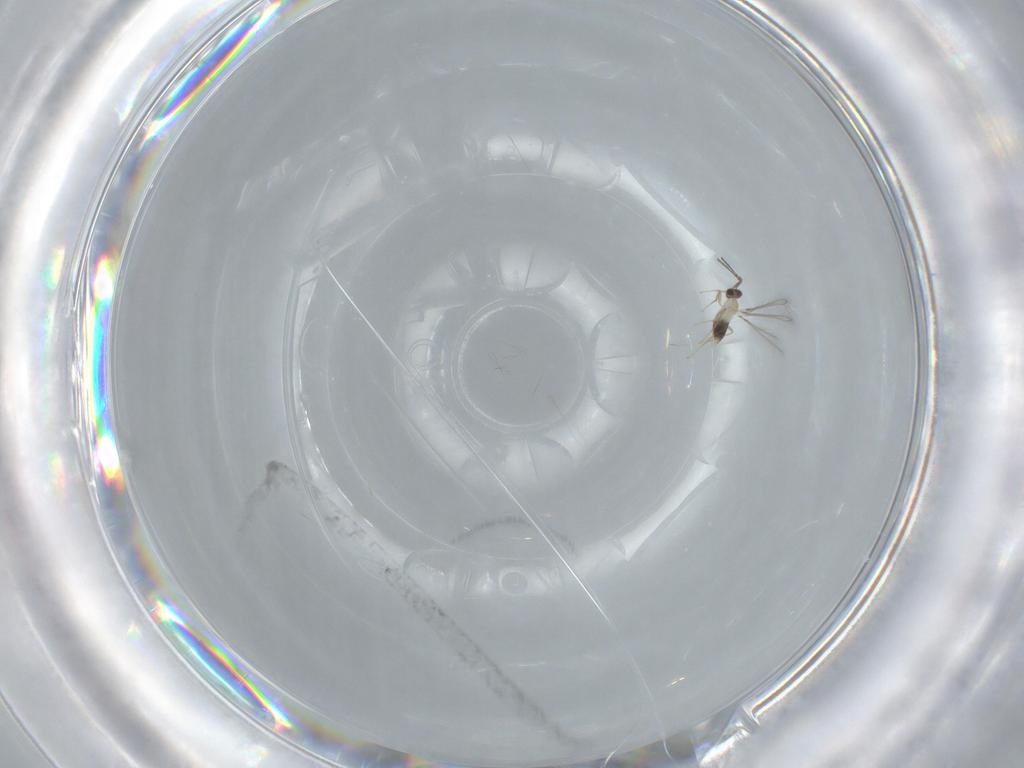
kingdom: Animalia
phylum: Arthropoda
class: Insecta
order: Hymenoptera
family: Mymaridae
